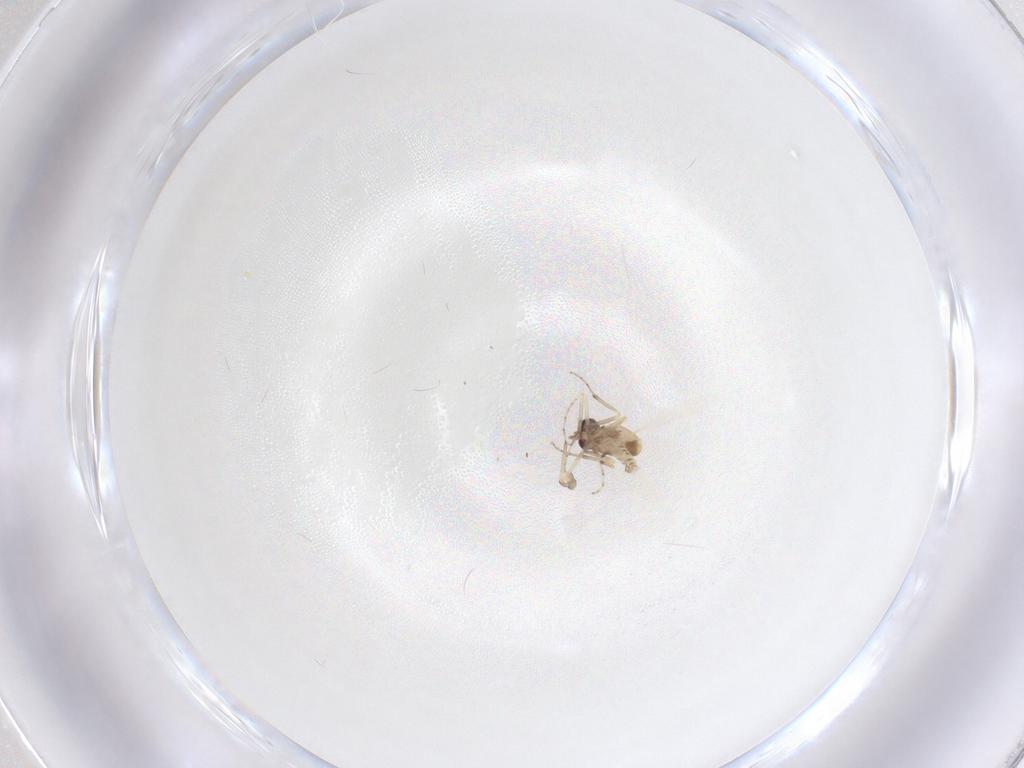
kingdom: Animalia
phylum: Arthropoda
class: Insecta
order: Diptera
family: Ceratopogonidae
